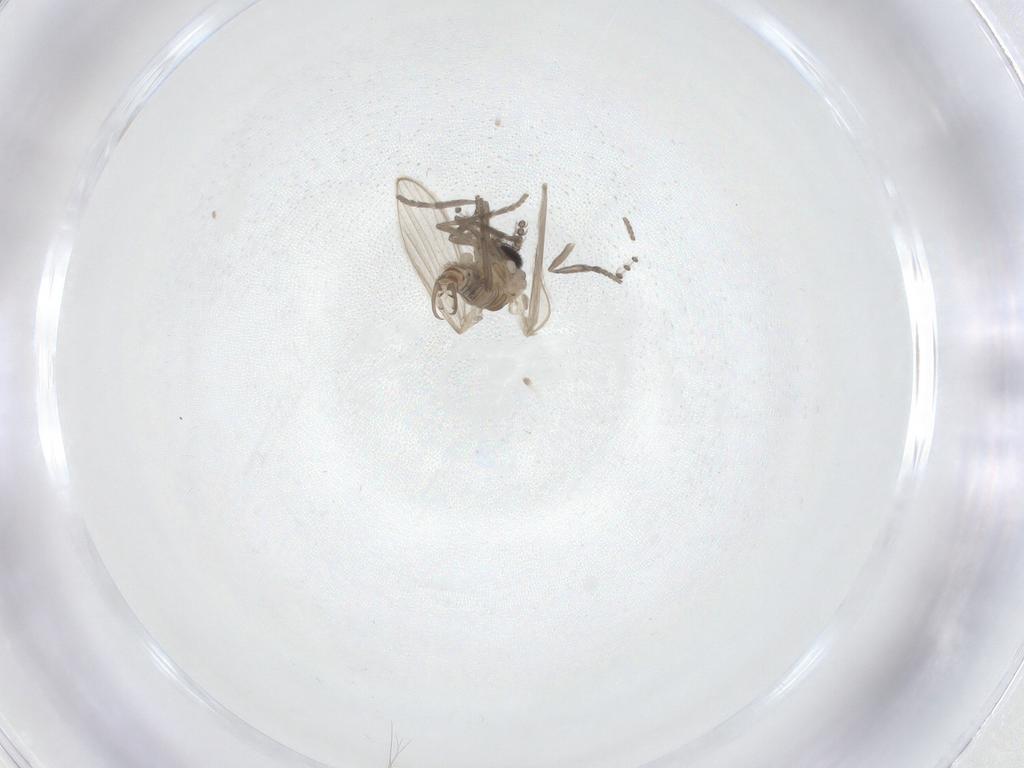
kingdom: Animalia
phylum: Arthropoda
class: Insecta
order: Diptera
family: Psychodidae
